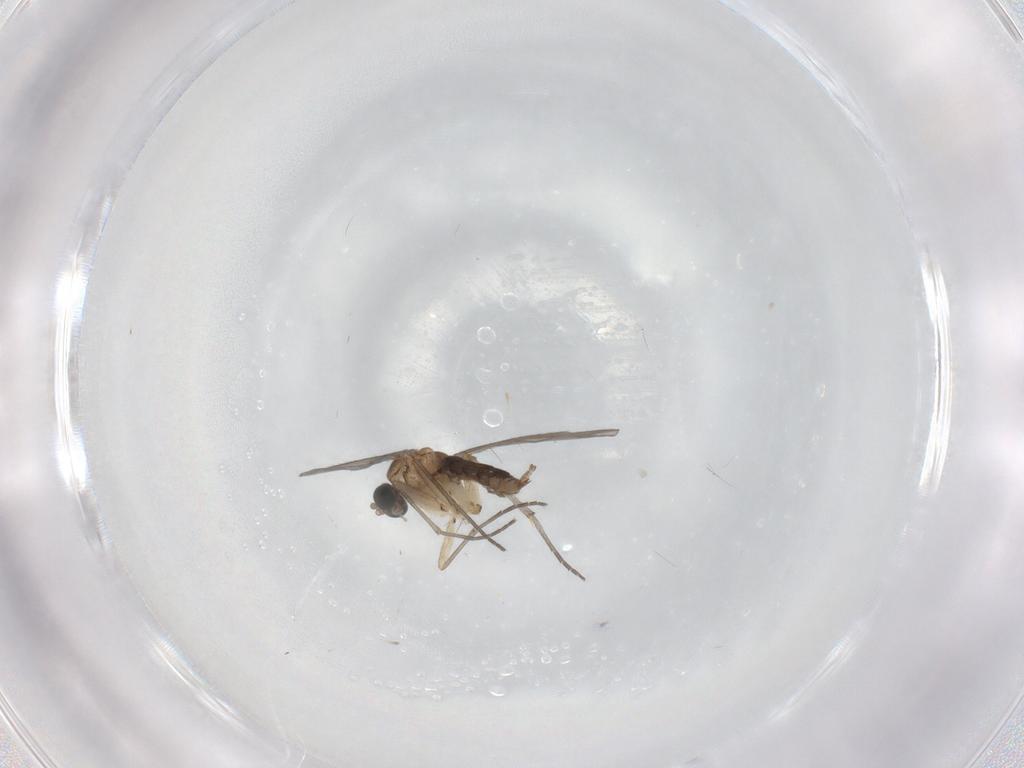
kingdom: Animalia
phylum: Arthropoda
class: Insecta
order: Diptera
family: Sciaridae
